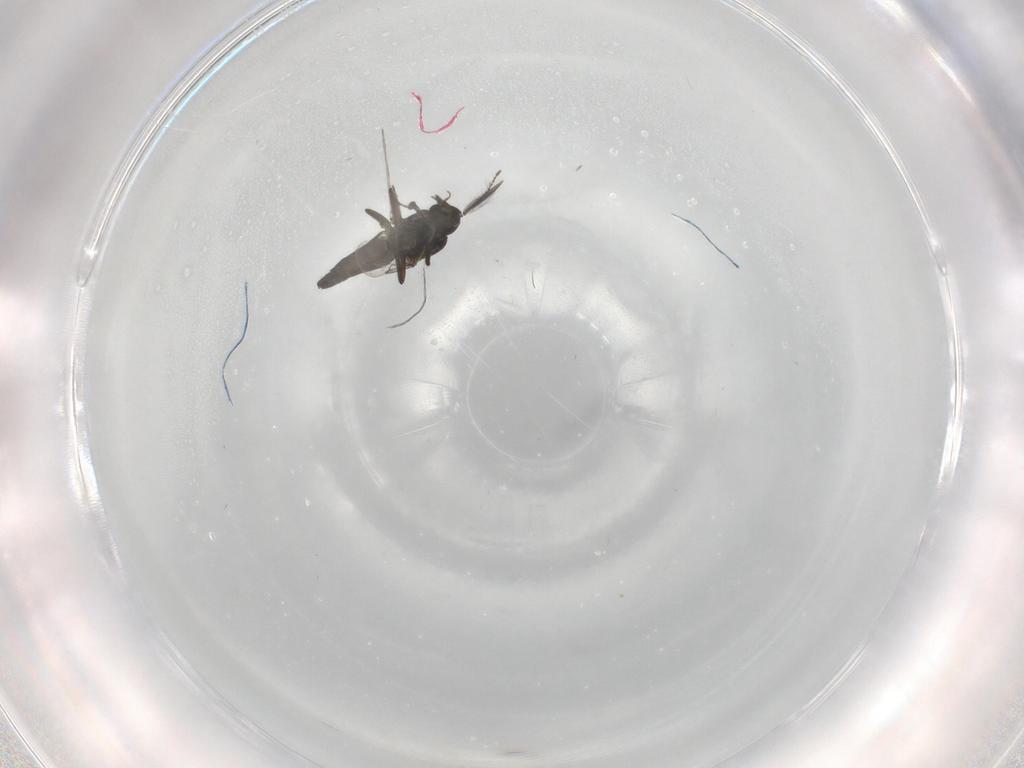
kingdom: Animalia
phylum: Arthropoda
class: Insecta
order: Diptera
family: Ceratopogonidae
